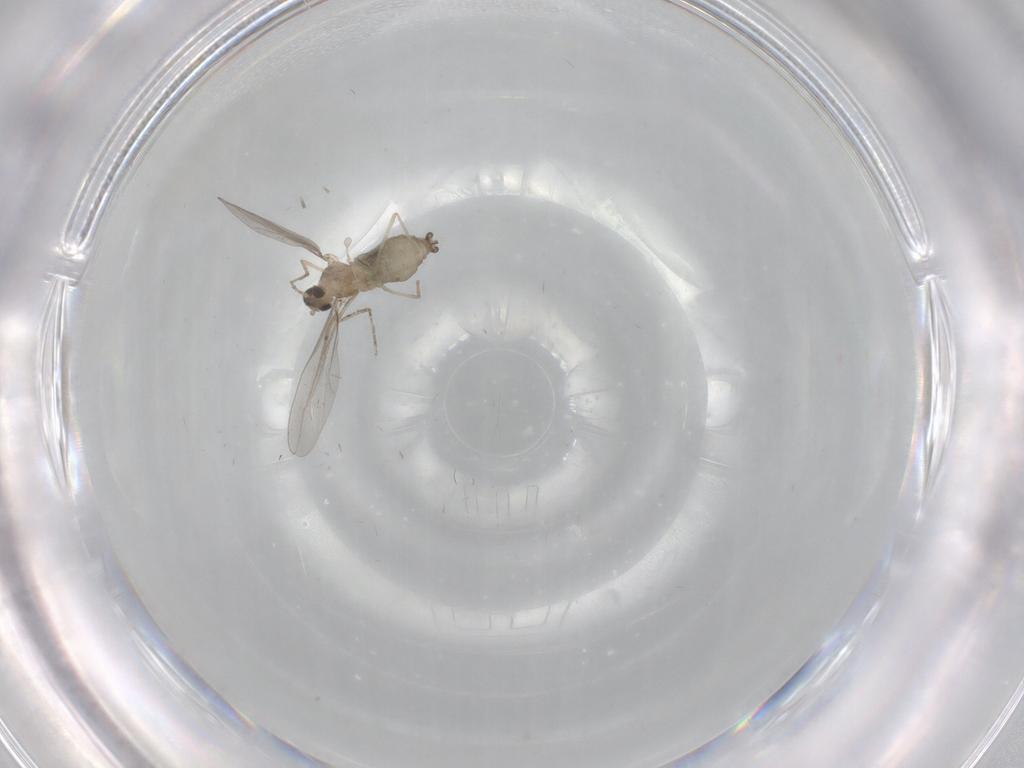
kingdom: Animalia
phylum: Arthropoda
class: Insecta
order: Diptera
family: Cecidomyiidae
